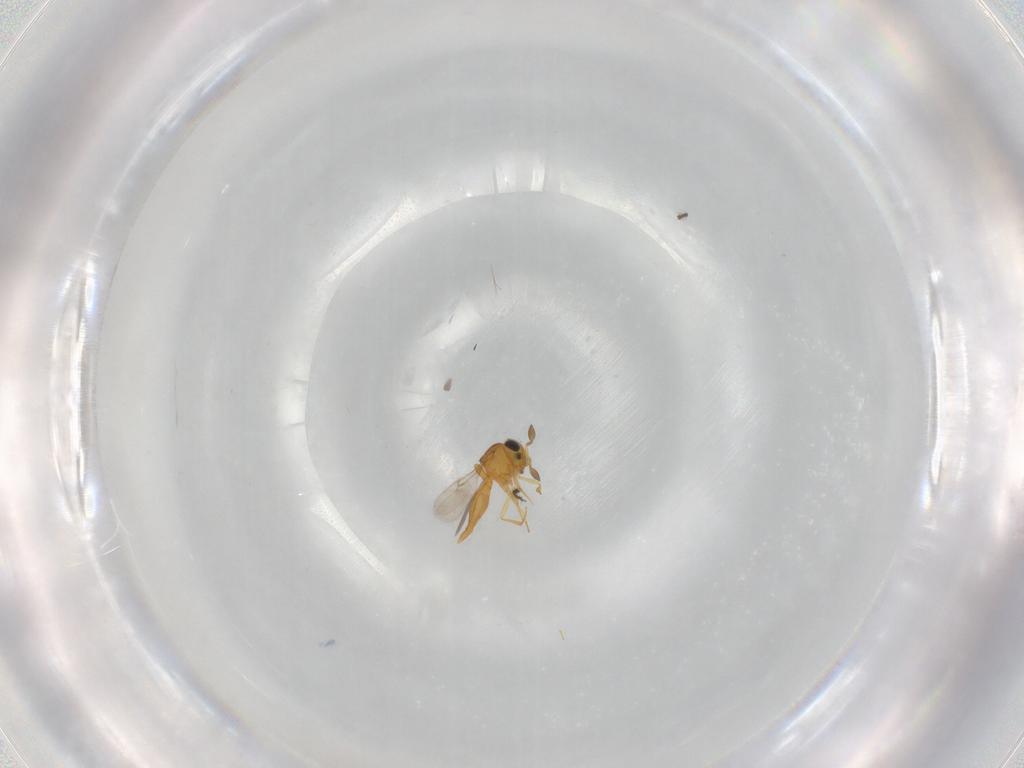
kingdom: Animalia
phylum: Arthropoda
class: Insecta
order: Hymenoptera
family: Scelionidae
